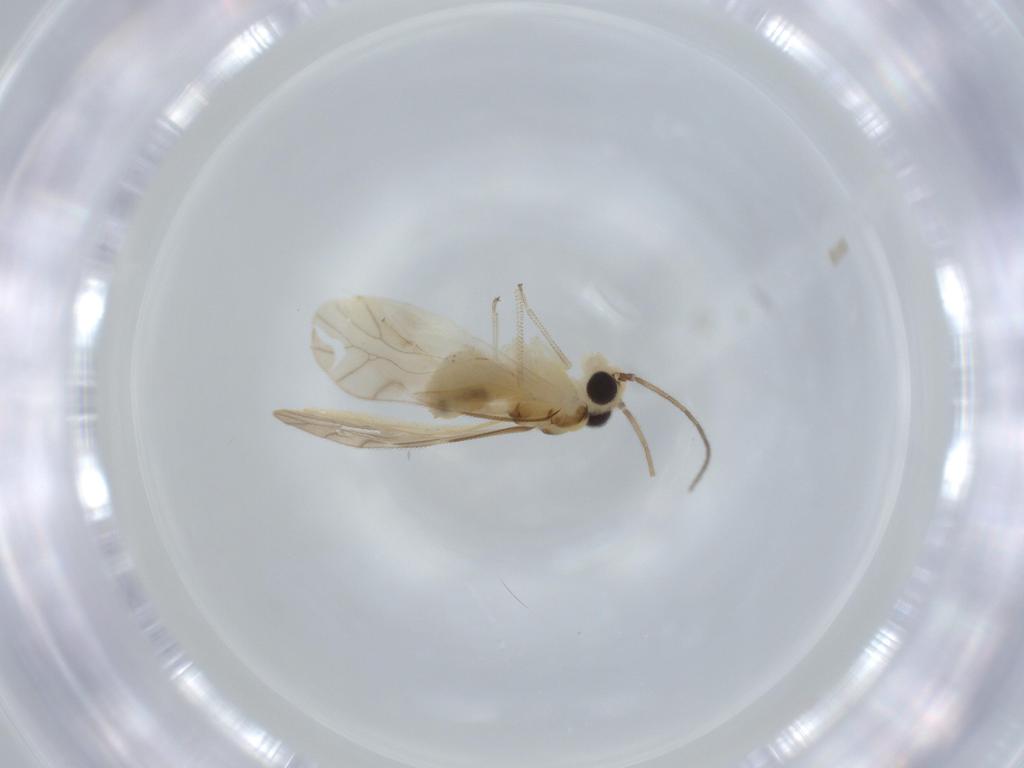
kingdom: Animalia
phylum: Arthropoda
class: Insecta
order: Psocodea
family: Caeciliusidae
